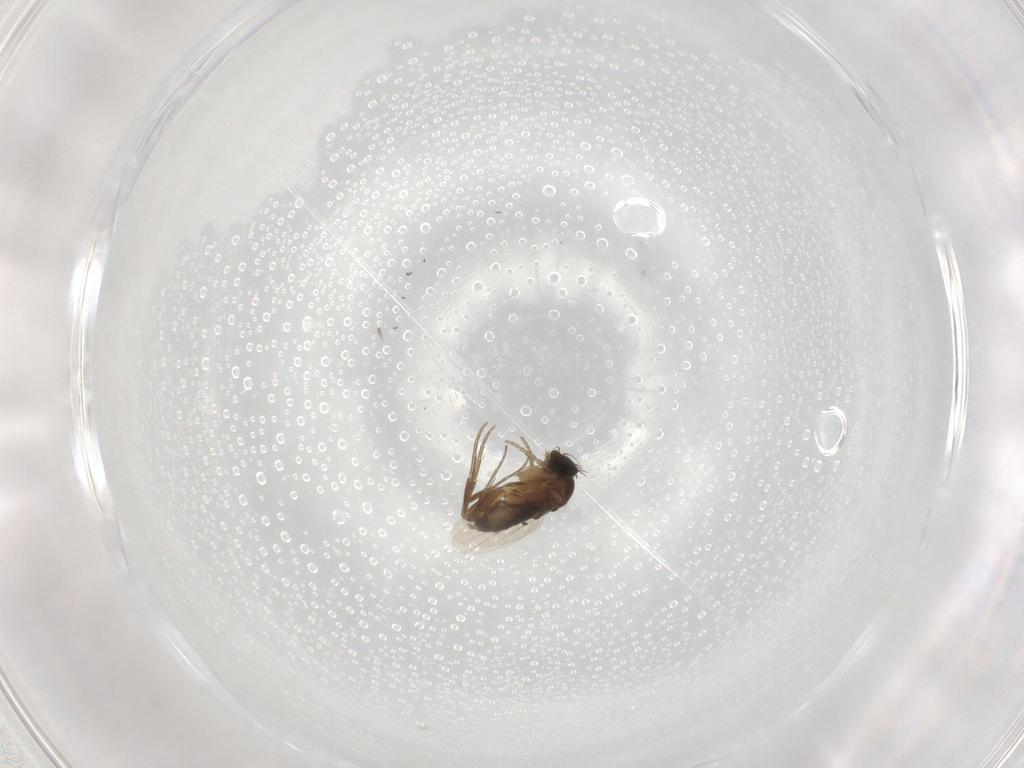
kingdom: Animalia
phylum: Arthropoda
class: Insecta
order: Diptera
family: Phoridae
